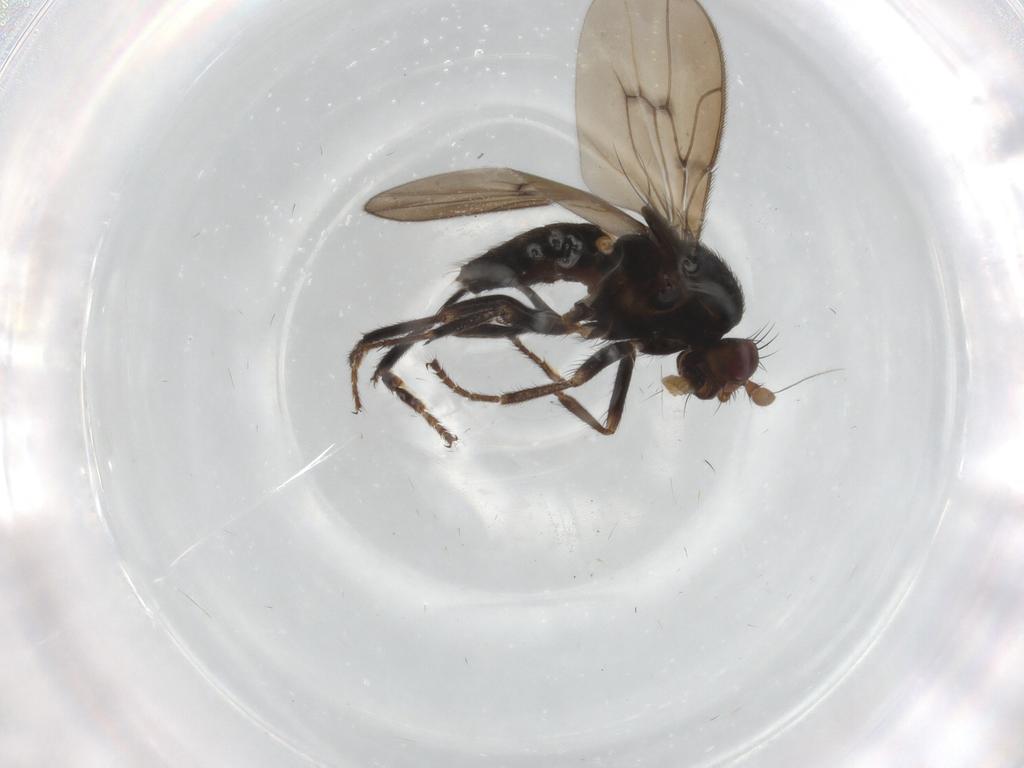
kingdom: Animalia
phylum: Arthropoda
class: Insecta
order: Diptera
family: Sphaeroceridae
